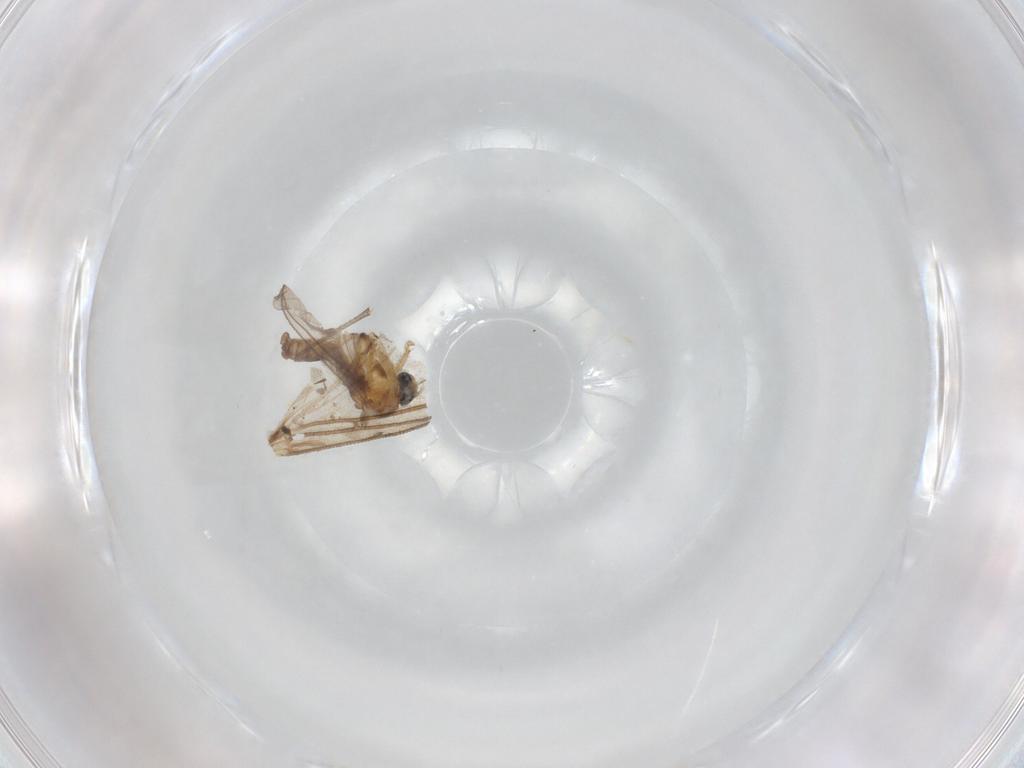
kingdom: Animalia
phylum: Arthropoda
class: Insecta
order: Diptera
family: Sciaridae
